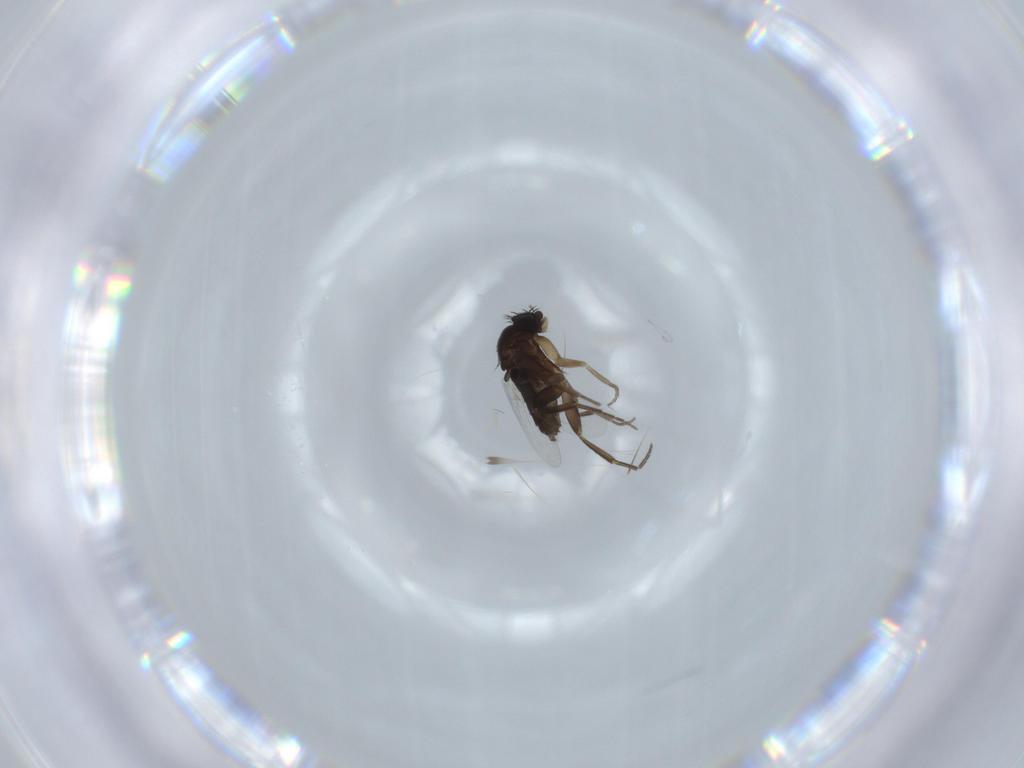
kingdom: Animalia
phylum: Arthropoda
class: Insecta
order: Diptera
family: Phoridae
